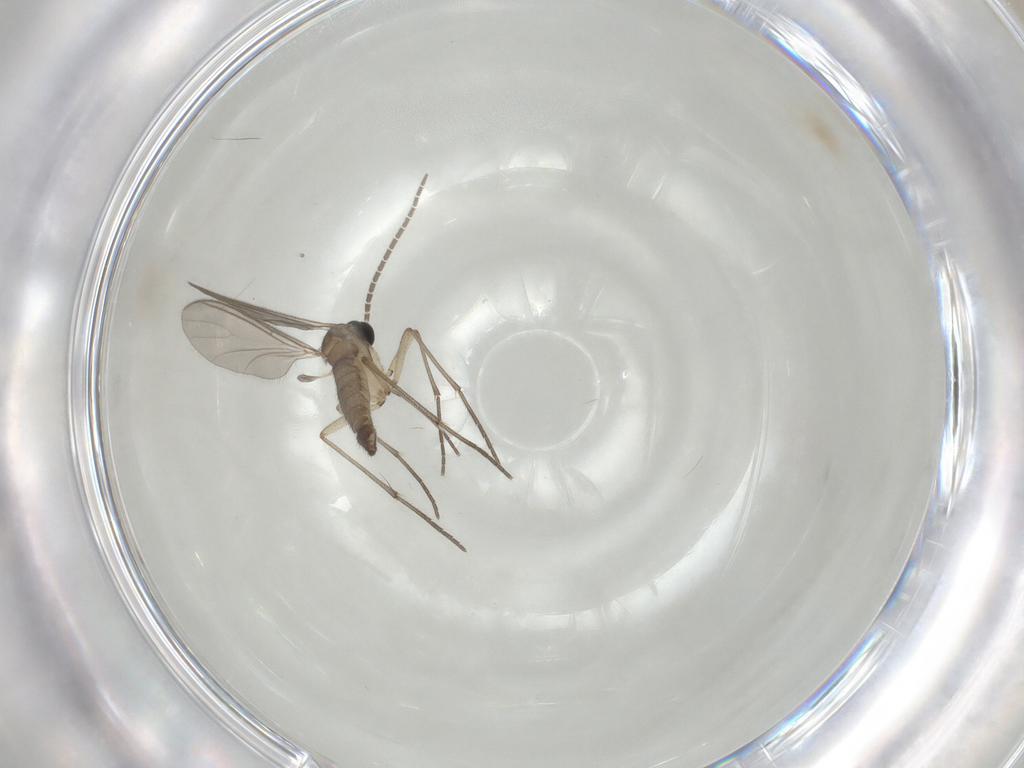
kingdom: Animalia
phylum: Arthropoda
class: Insecta
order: Diptera
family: Sciaridae
